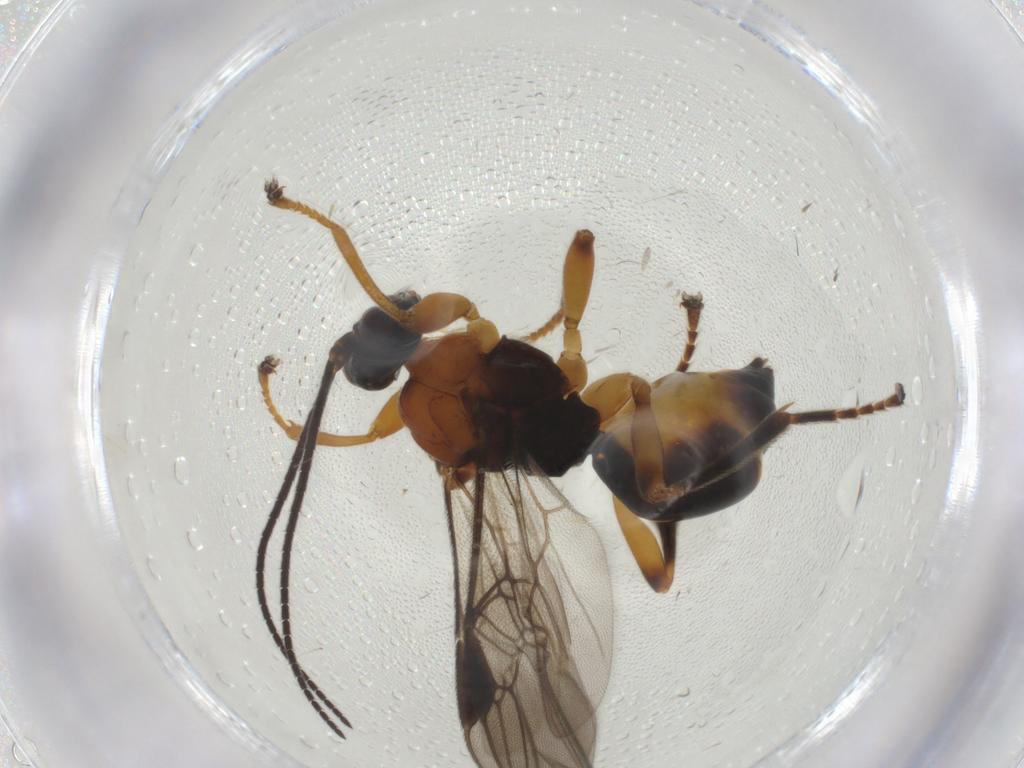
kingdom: Animalia
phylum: Arthropoda
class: Insecta
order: Hymenoptera
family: Braconidae
